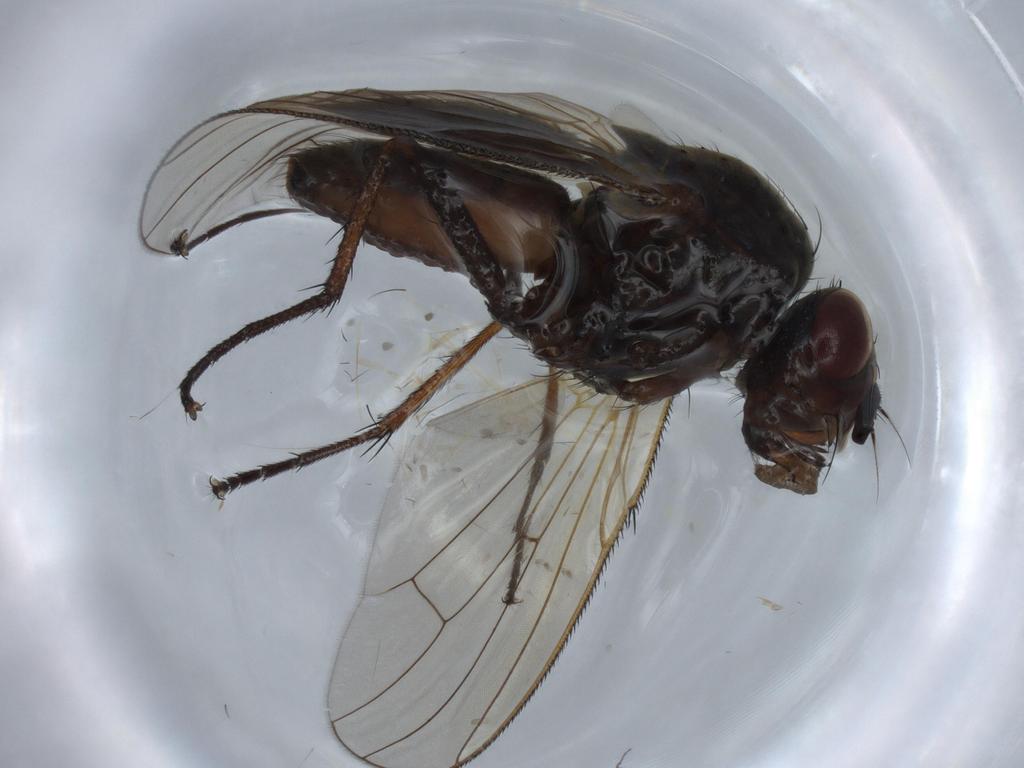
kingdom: Animalia
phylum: Arthropoda
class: Insecta
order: Diptera
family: Anthomyiidae
